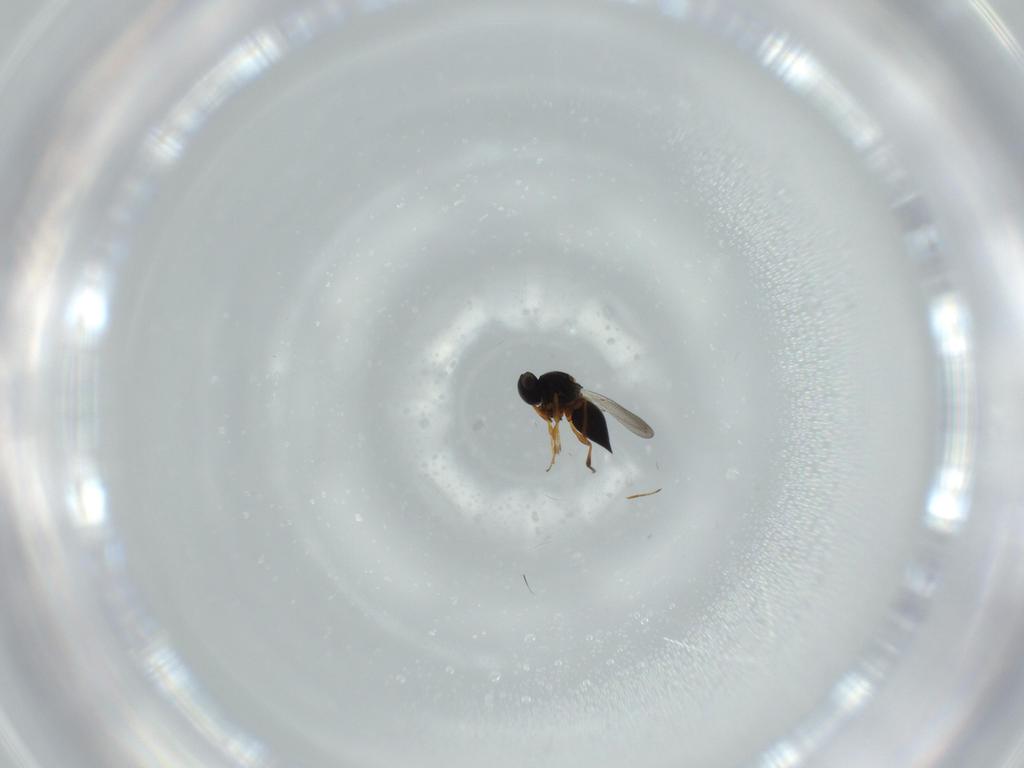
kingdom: Animalia
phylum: Arthropoda
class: Insecta
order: Hymenoptera
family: Platygastridae
